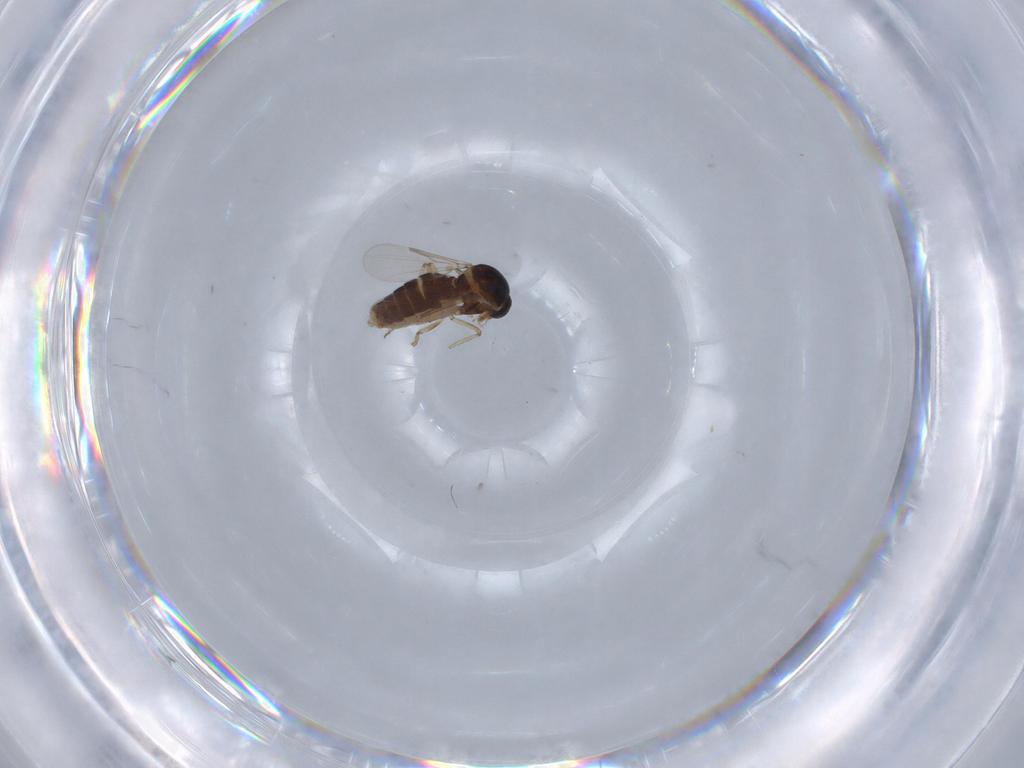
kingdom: Animalia
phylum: Arthropoda
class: Insecta
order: Diptera
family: Ceratopogonidae
